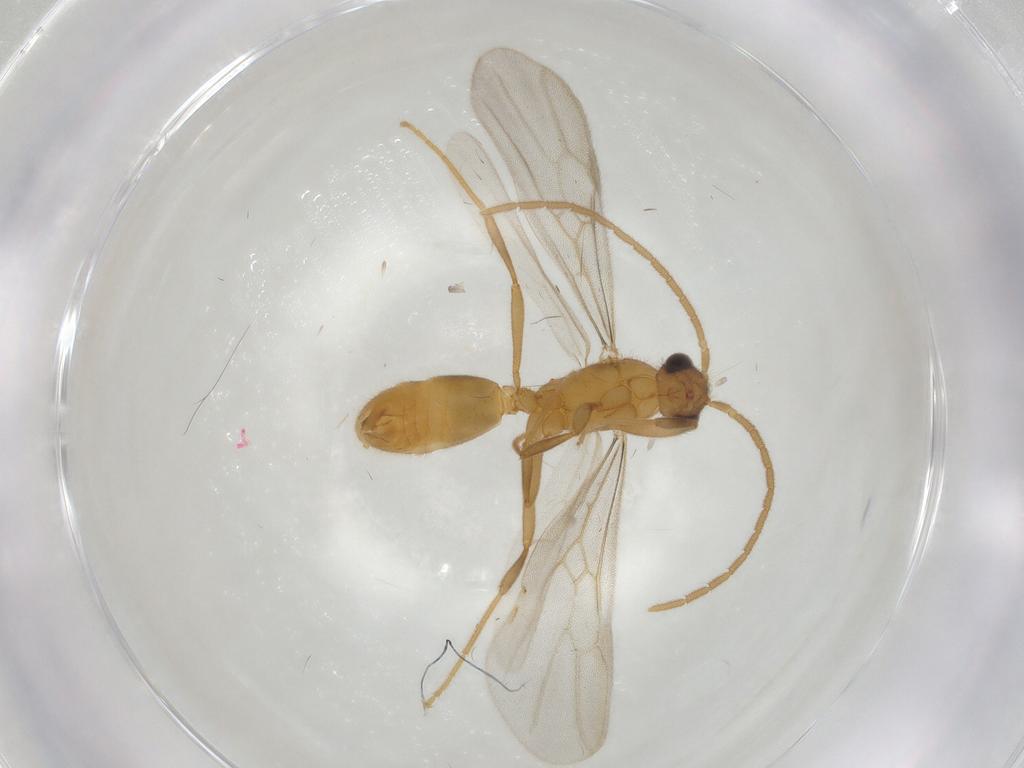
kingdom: Animalia
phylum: Arthropoda
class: Insecta
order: Hymenoptera
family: Formicidae
